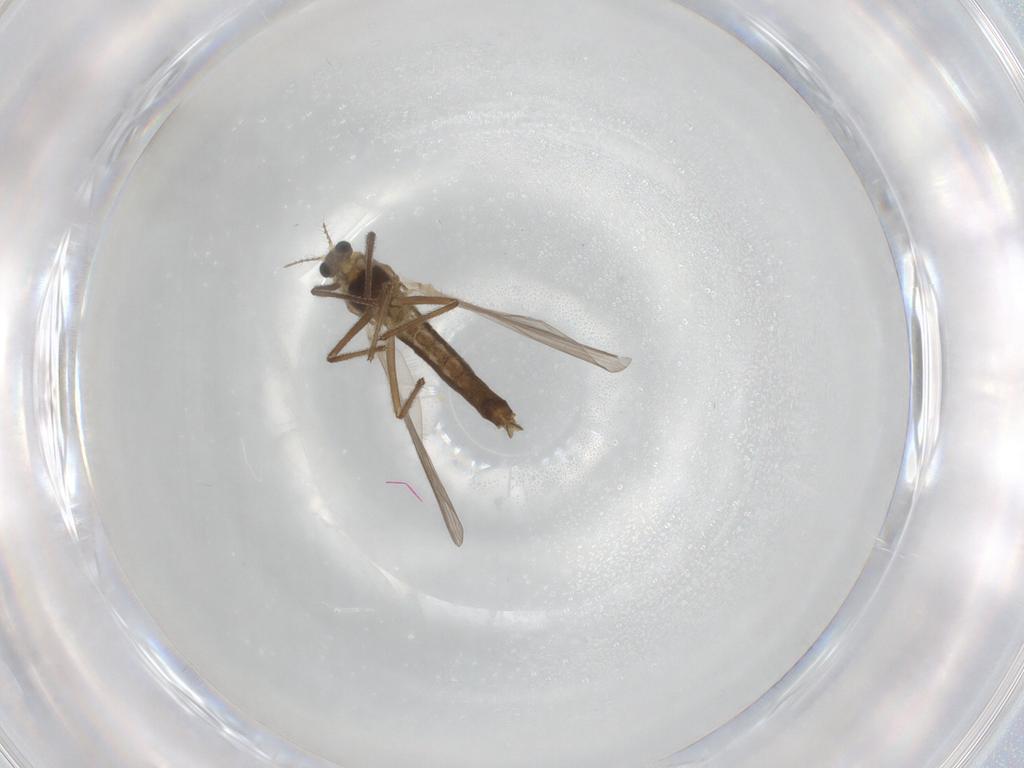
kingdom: Animalia
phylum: Arthropoda
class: Insecta
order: Diptera
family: Chironomidae
